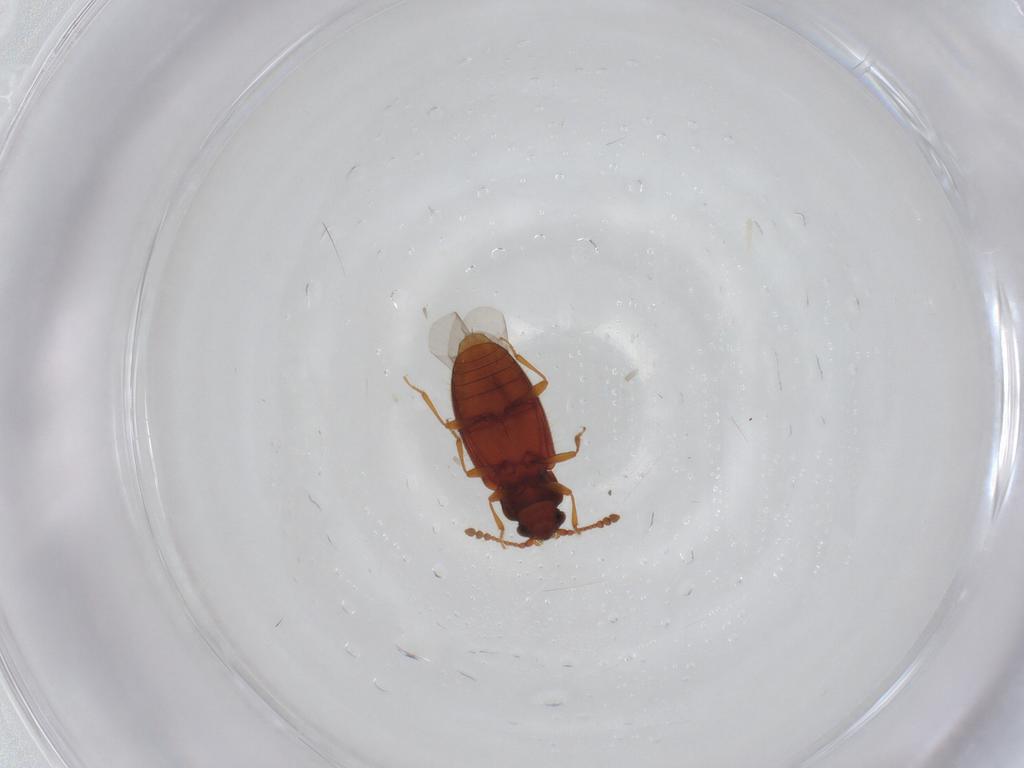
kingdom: Animalia
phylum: Arthropoda
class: Insecta
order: Coleoptera
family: Cryptophagidae
